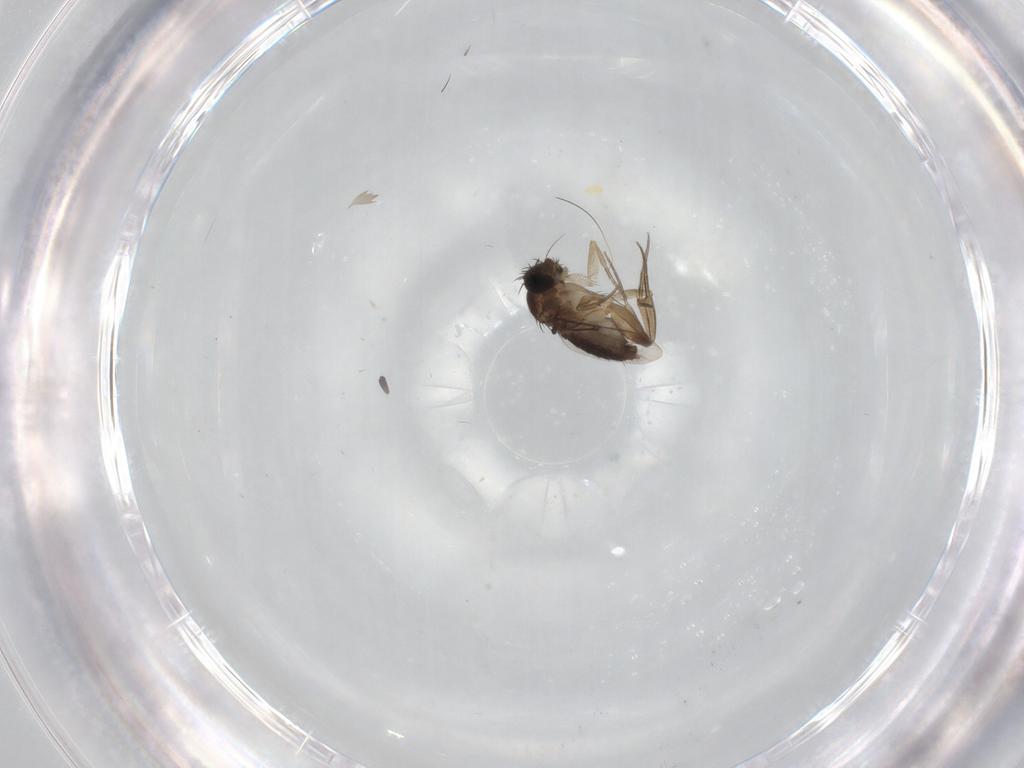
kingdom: Animalia
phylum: Arthropoda
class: Insecta
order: Diptera
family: Phoridae
